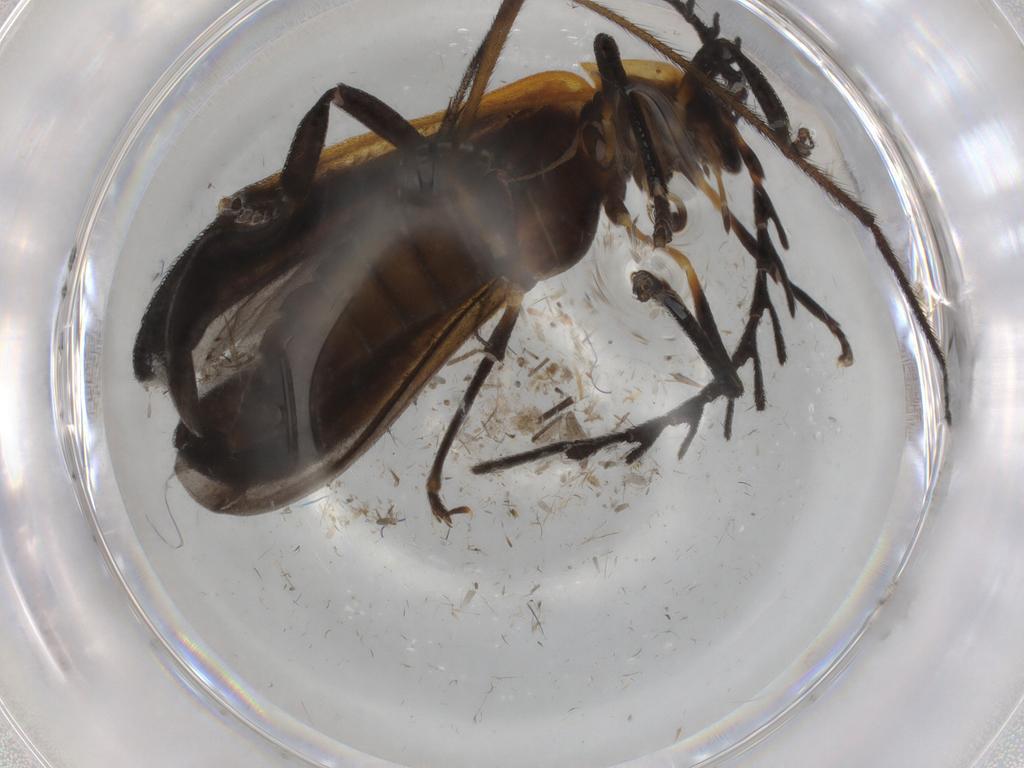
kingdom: Animalia
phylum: Arthropoda
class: Insecta
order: Coleoptera
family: Lycidae
